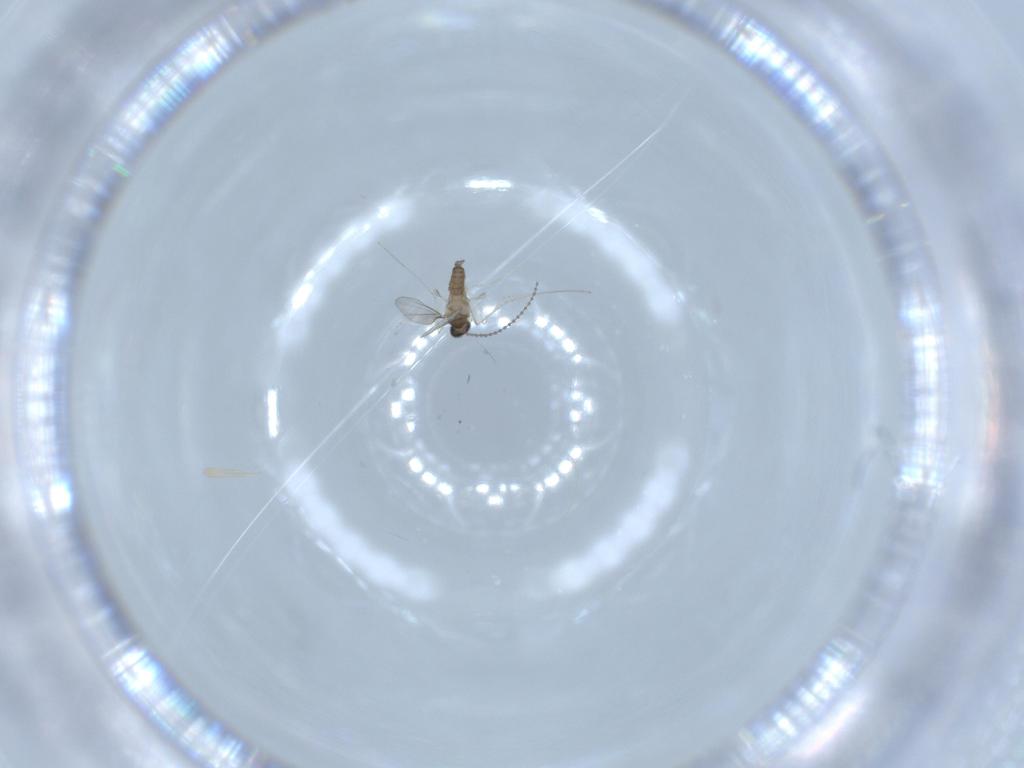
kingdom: Animalia
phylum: Arthropoda
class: Insecta
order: Diptera
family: Cecidomyiidae
